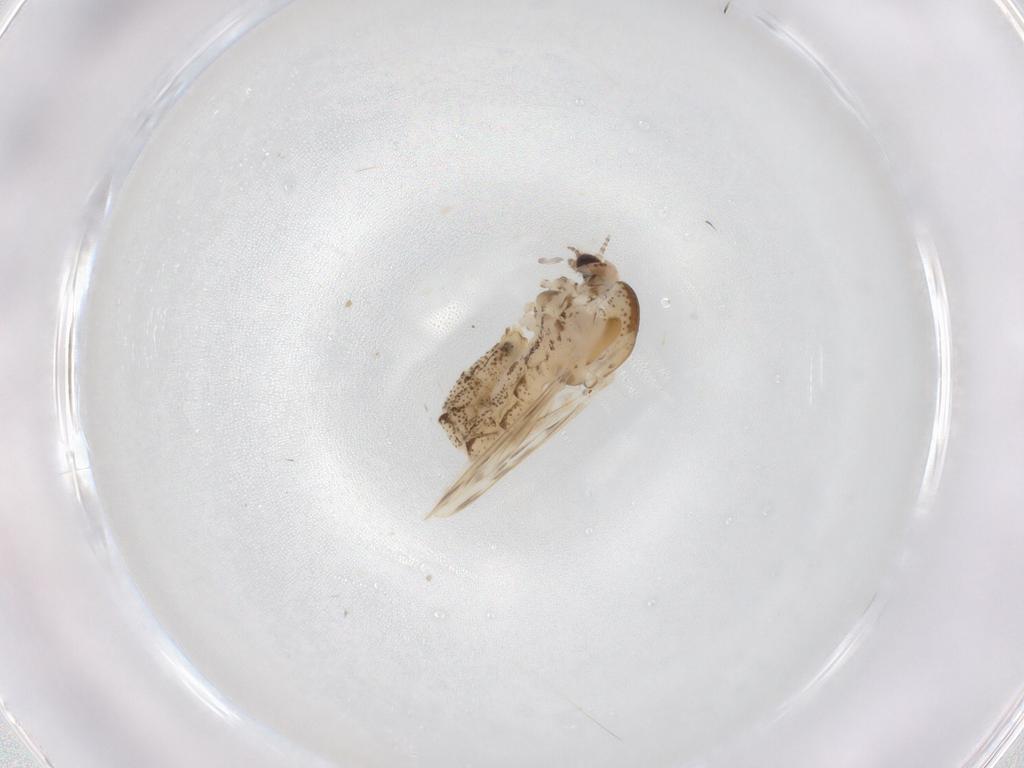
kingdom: Animalia
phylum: Arthropoda
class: Insecta
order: Diptera
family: Chaoboridae
